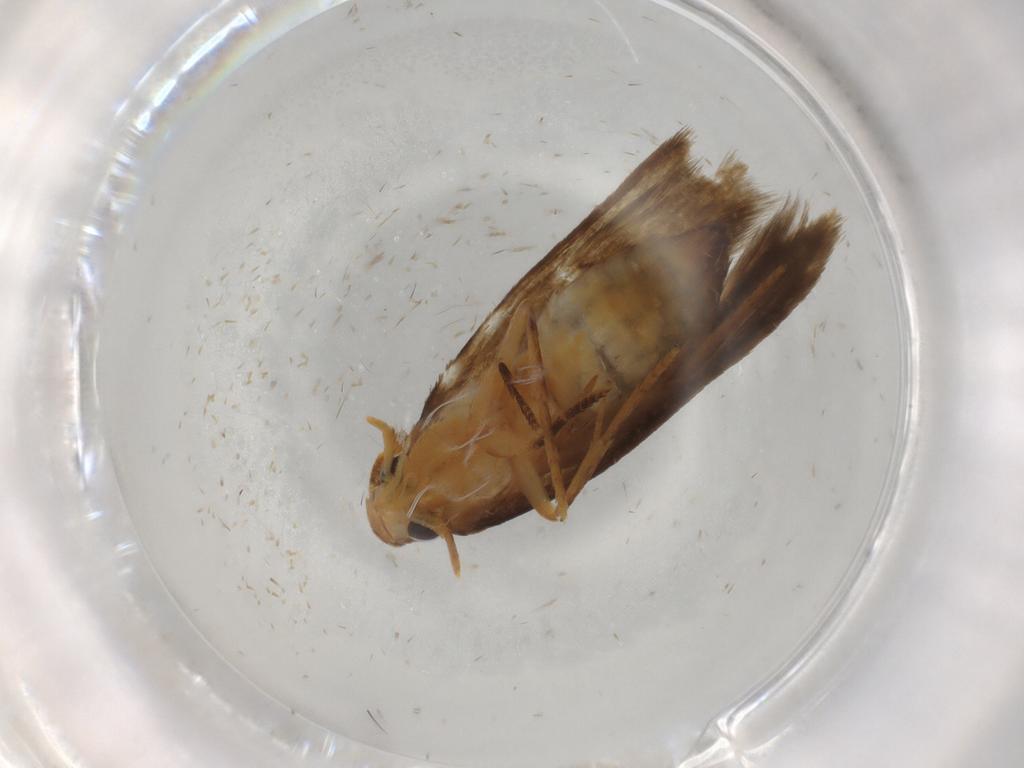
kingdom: Animalia
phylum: Arthropoda
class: Insecta
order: Lepidoptera
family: Tineidae
